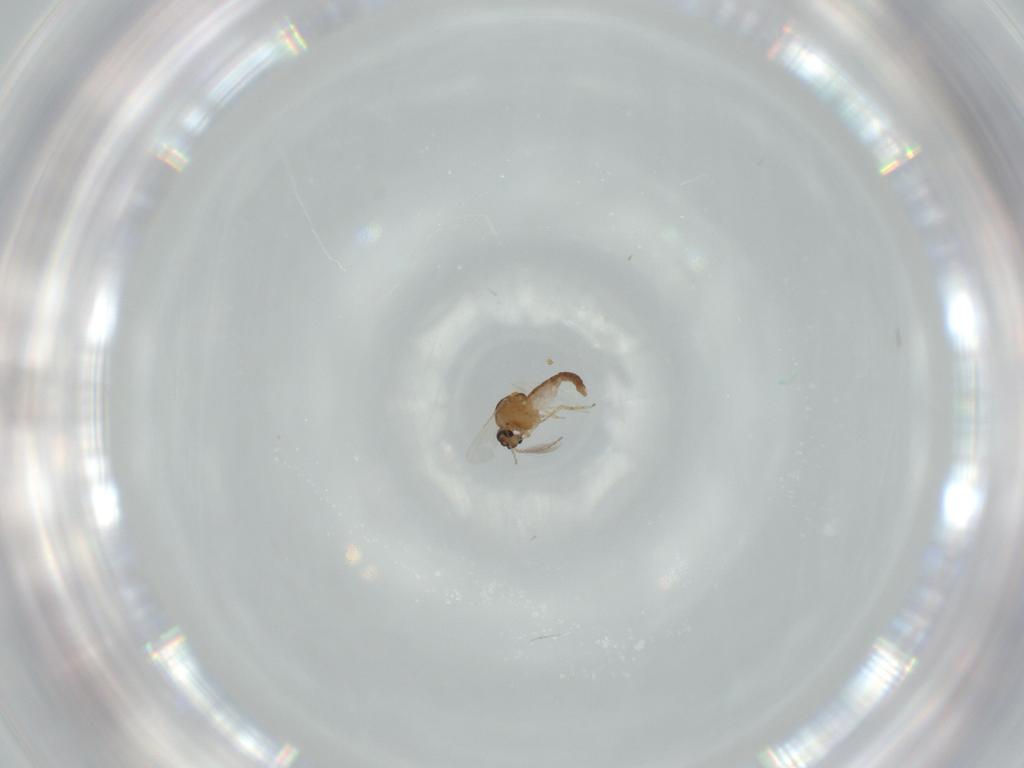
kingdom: Animalia
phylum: Arthropoda
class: Insecta
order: Diptera
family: Ceratopogonidae
